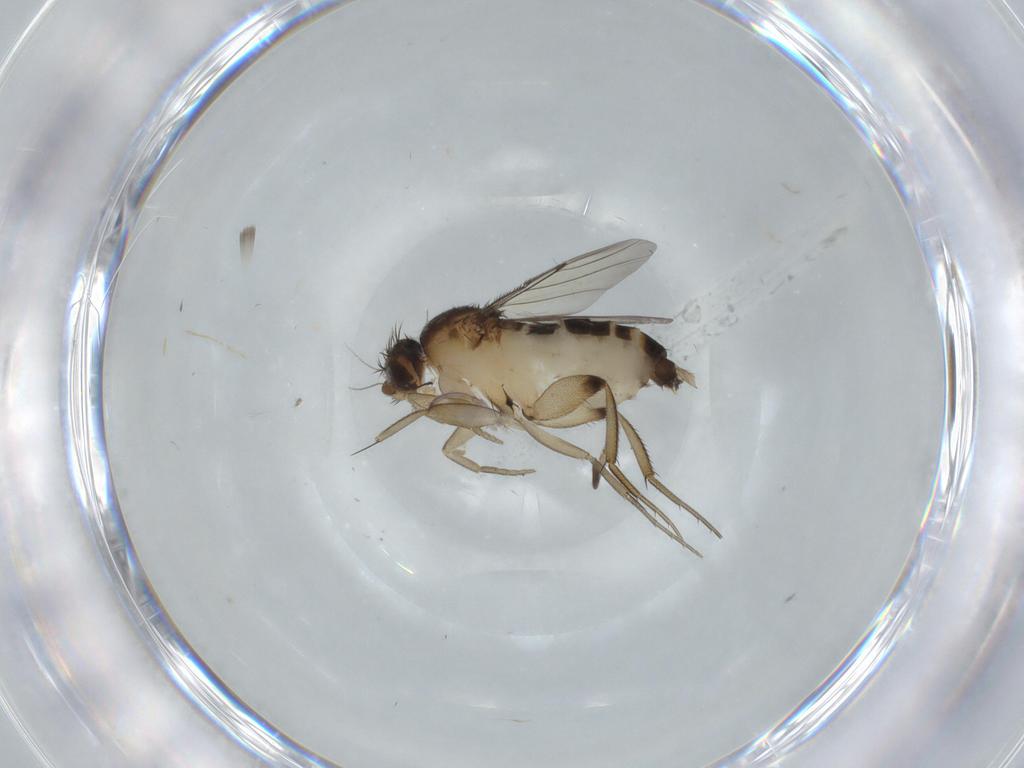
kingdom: Animalia
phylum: Arthropoda
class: Insecta
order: Diptera
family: Phoridae
